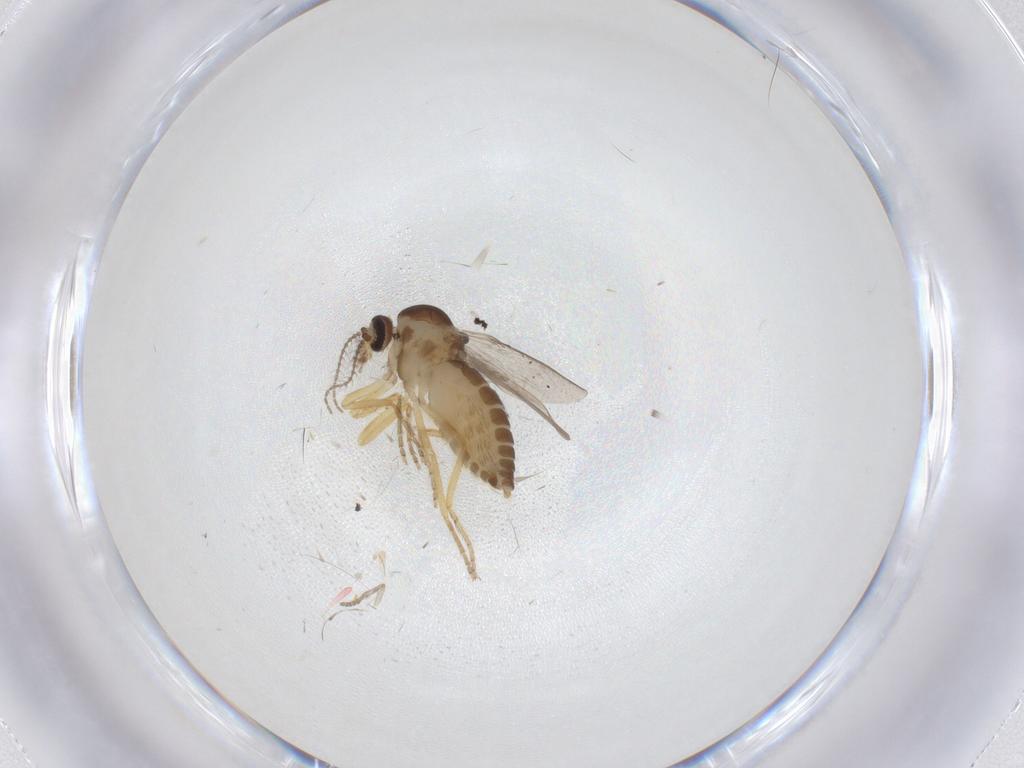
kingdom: Animalia
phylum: Arthropoda
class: Insecta
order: Diptera
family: Ceratopogonidae
